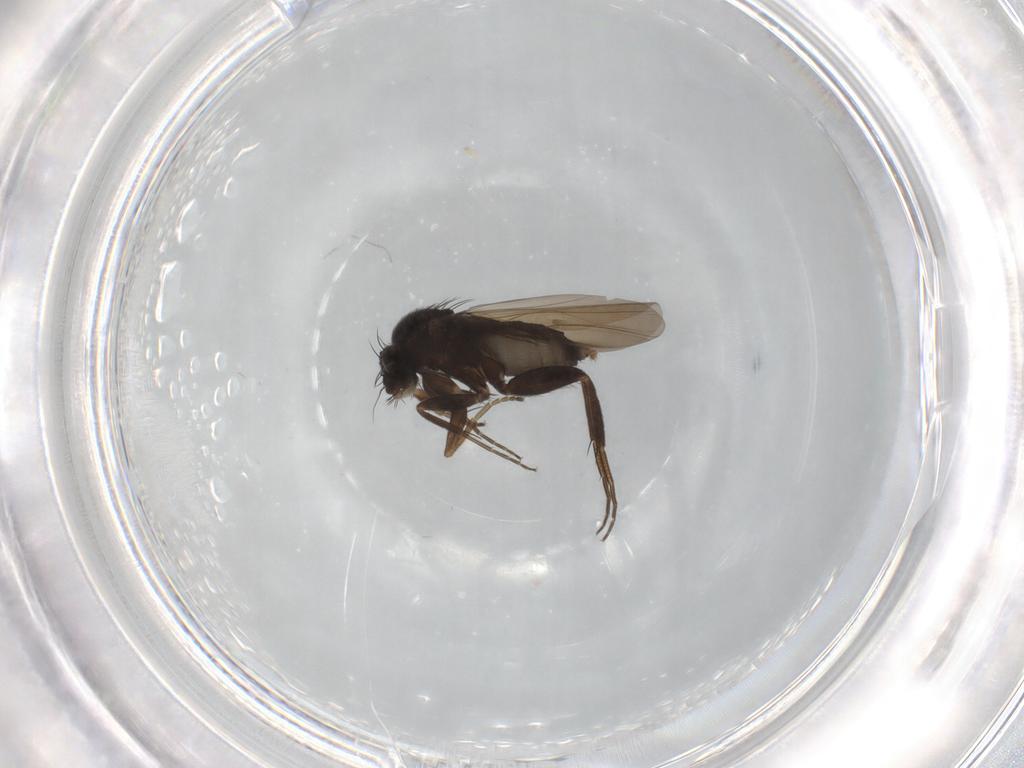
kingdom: Animalia
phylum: Arthropoda
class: Insecta
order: Diptera
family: Phoridae
